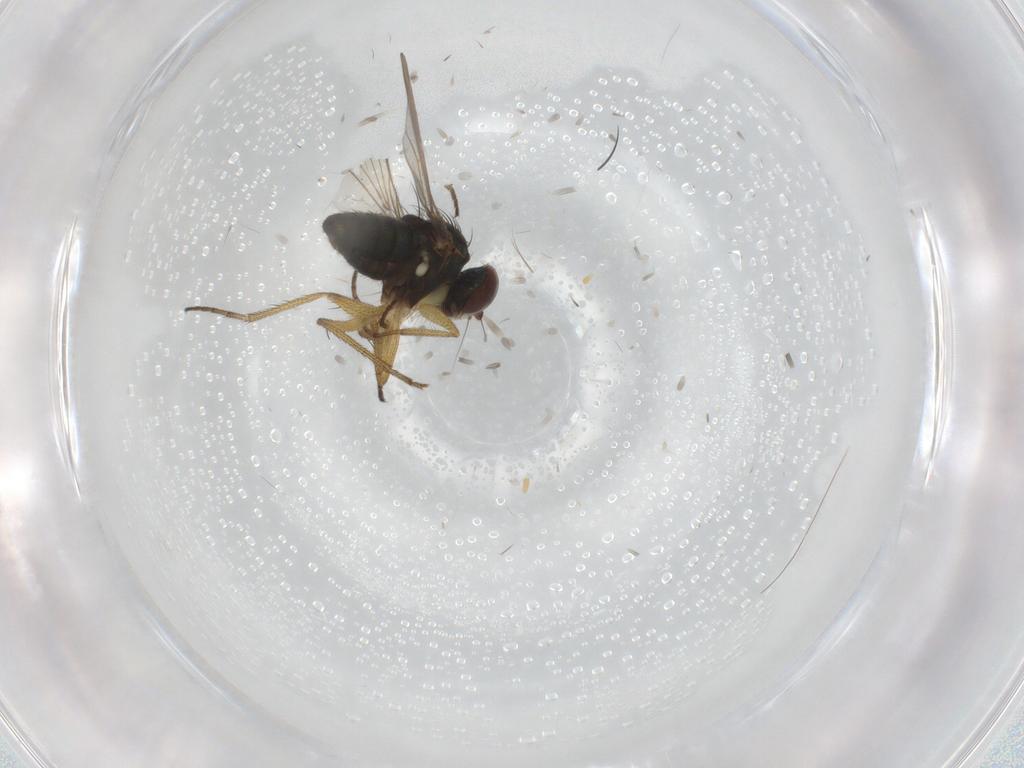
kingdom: Animalia
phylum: Arthropoda
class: Insecta
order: Diptera
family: Dolichopodidae
